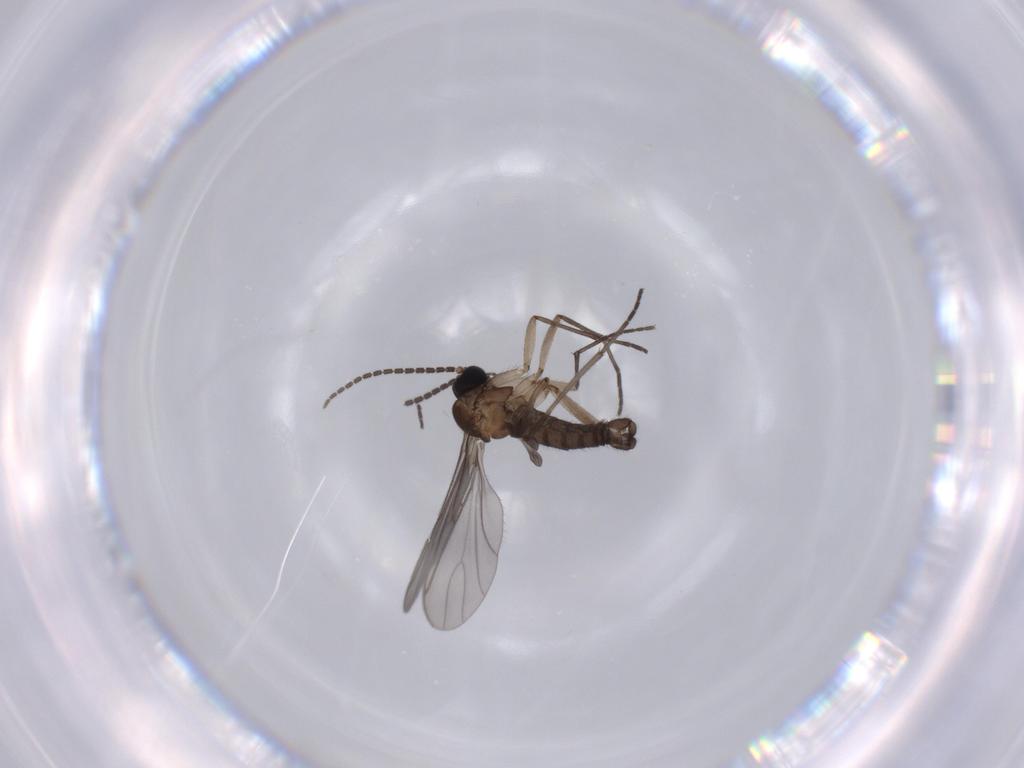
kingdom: Animalia
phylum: Arthropoda
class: Insecta
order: Diptera
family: Sciaridae
